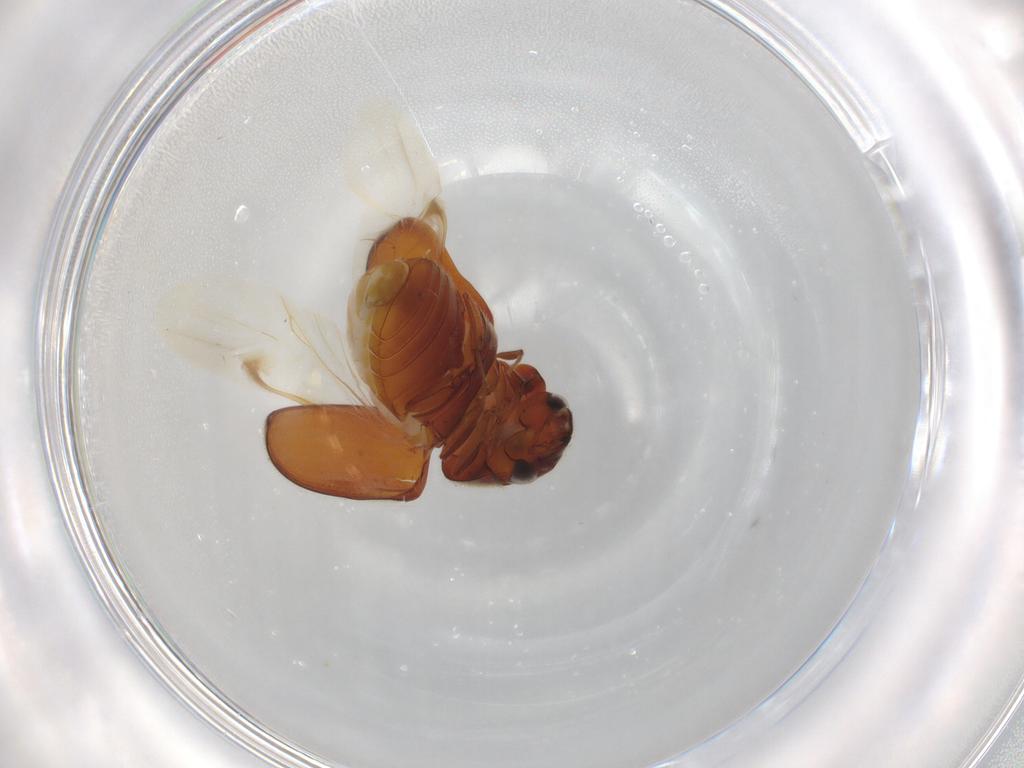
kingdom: Animalia
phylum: Arthropoda
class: Insecta
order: Coleoptera
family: Anobiidae
